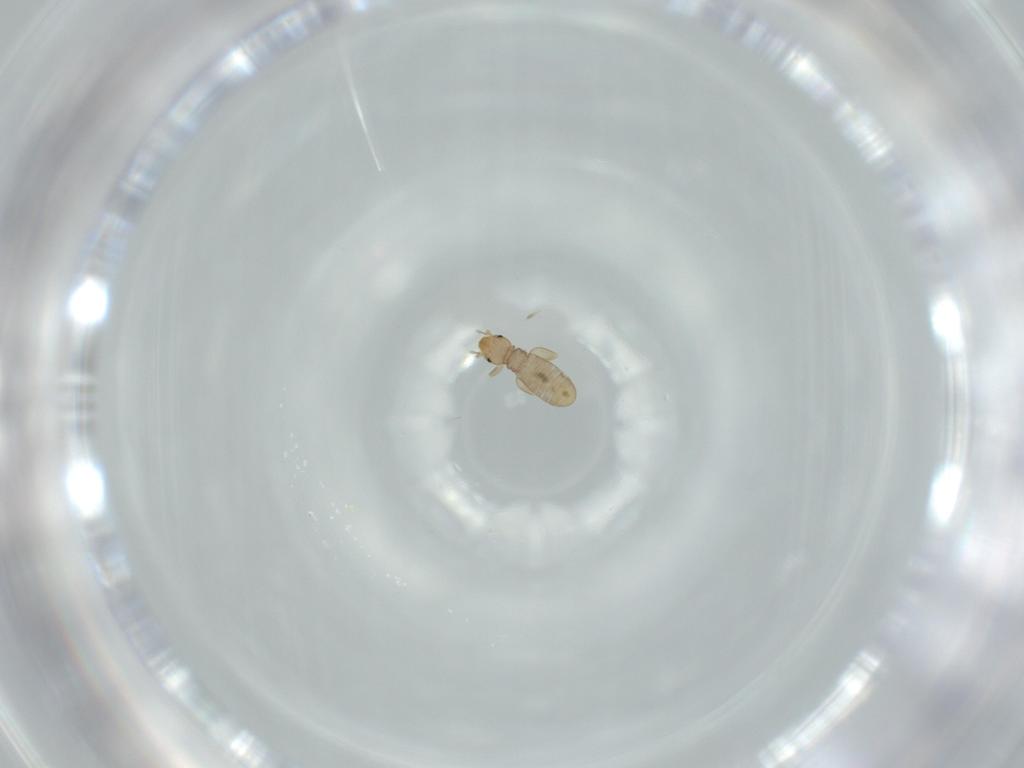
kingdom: Animalia
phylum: Arthropoda
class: Insecta
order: Psocodea
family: Liposcelididae
